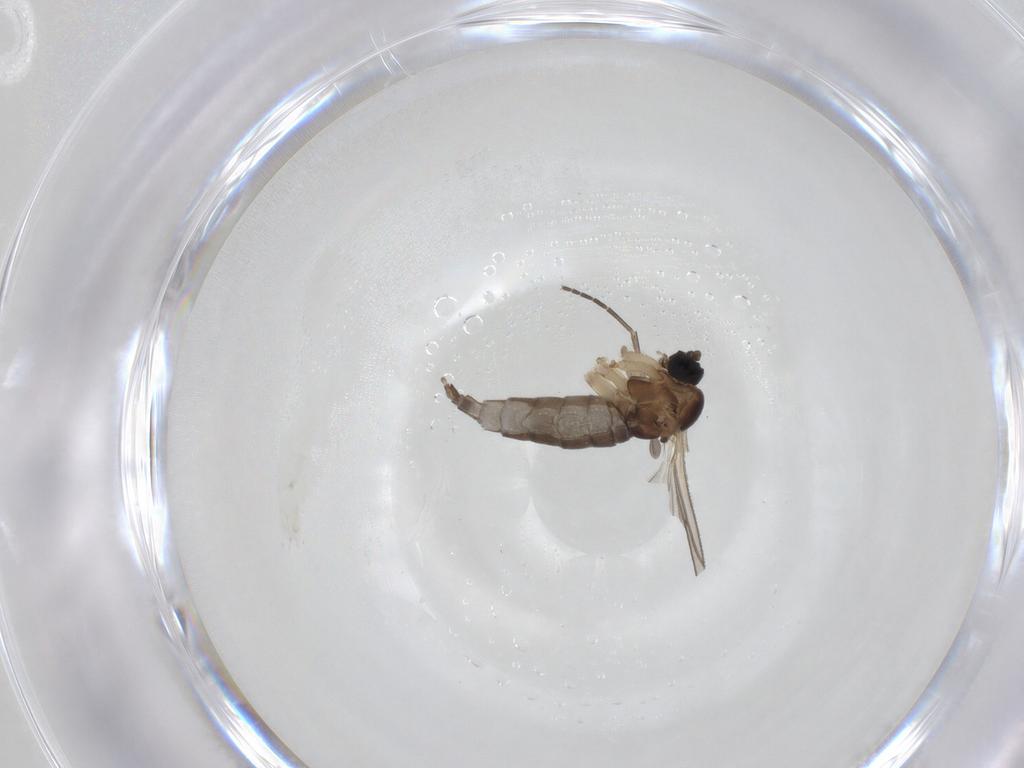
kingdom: Animalia
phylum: Arthropoda
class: Insecta
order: Diptera
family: Sciaridae
